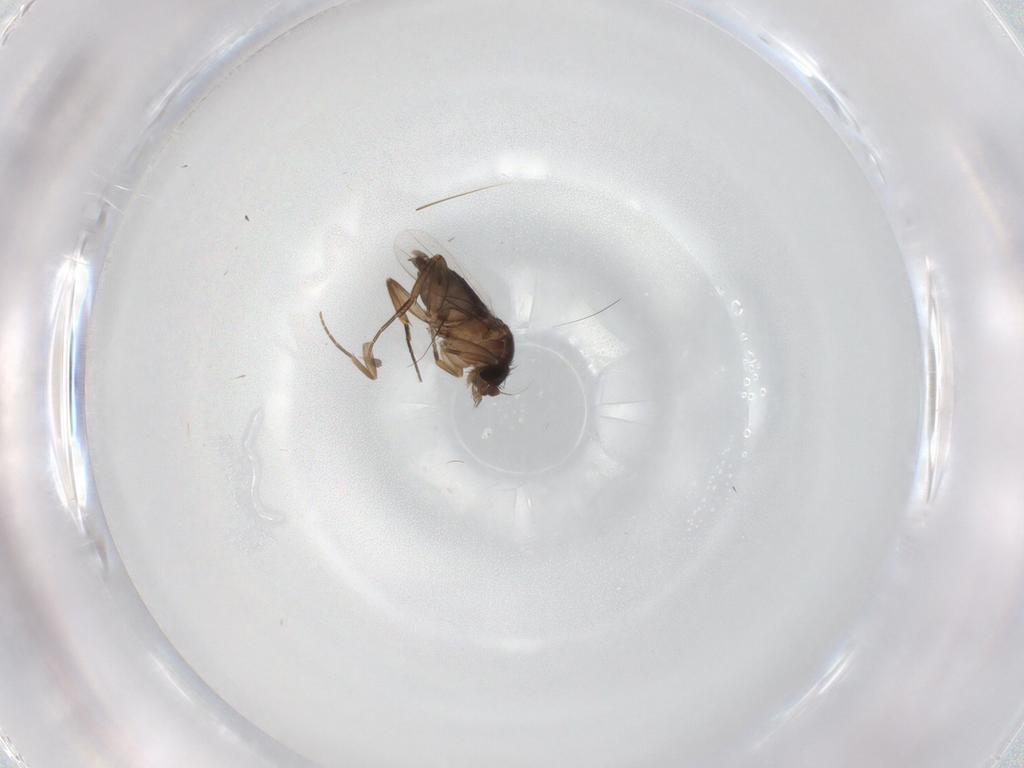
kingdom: Animalia
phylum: Arthropoda
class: Insecta
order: Diptera
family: Phoridae
